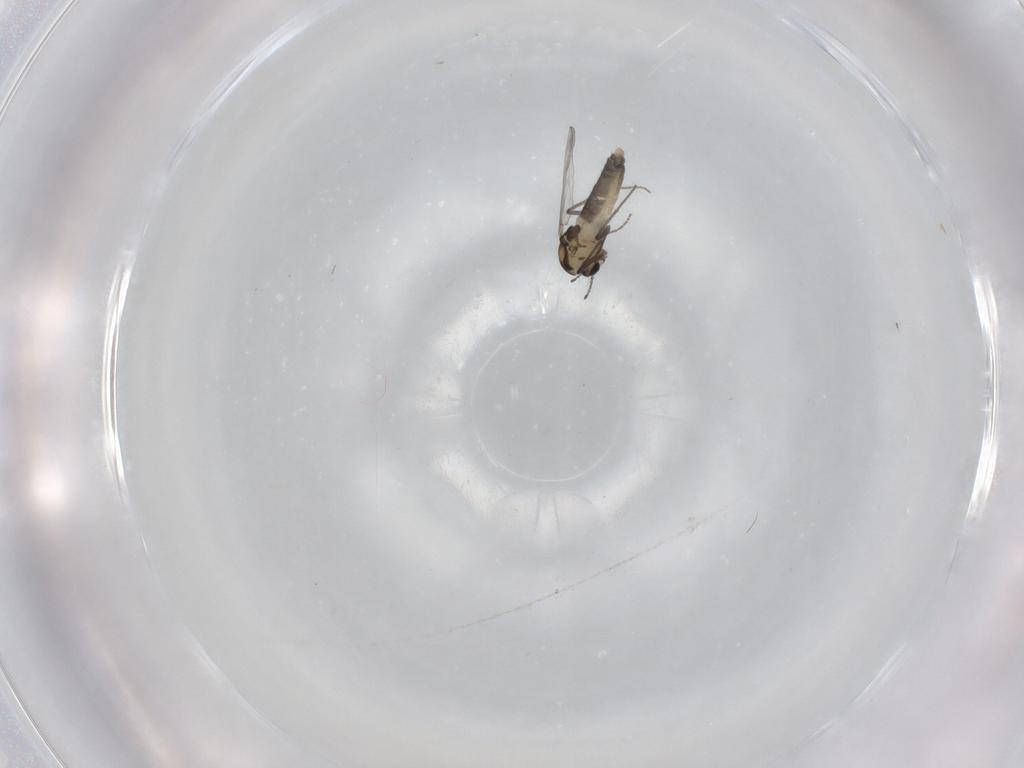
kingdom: Animalia
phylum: Arthropoda
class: Insecta
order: Diptera
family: Chironomidae
